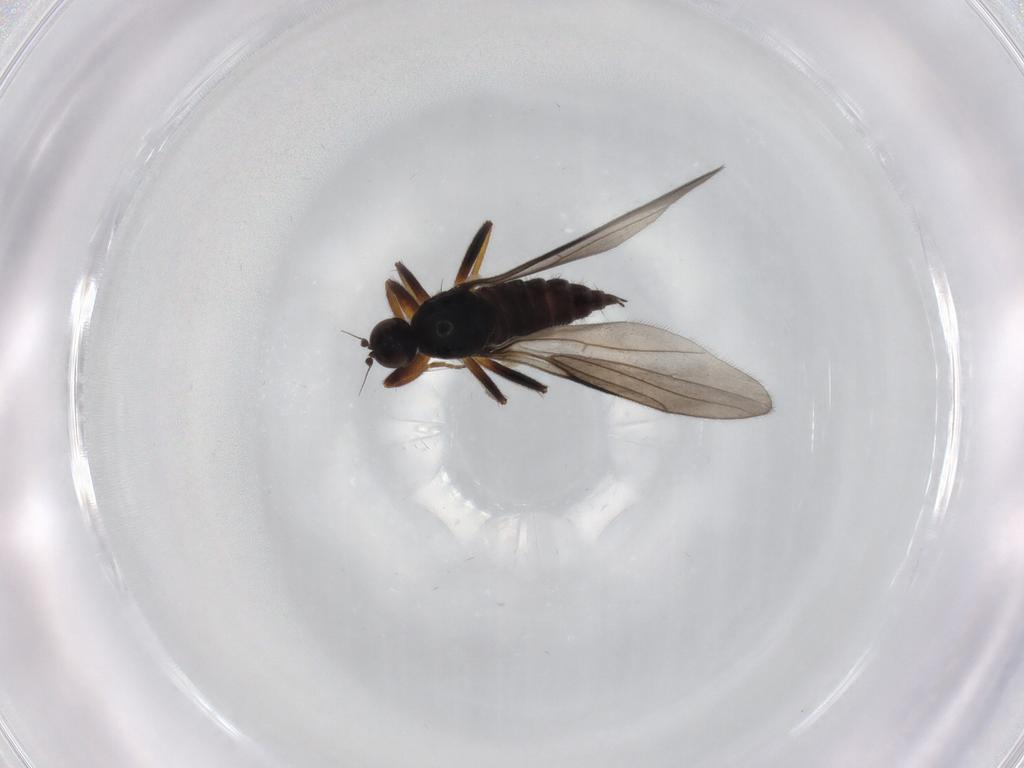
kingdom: Animalia
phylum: Arthropoda
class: Insecta
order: Diptera
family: Hybotidae
